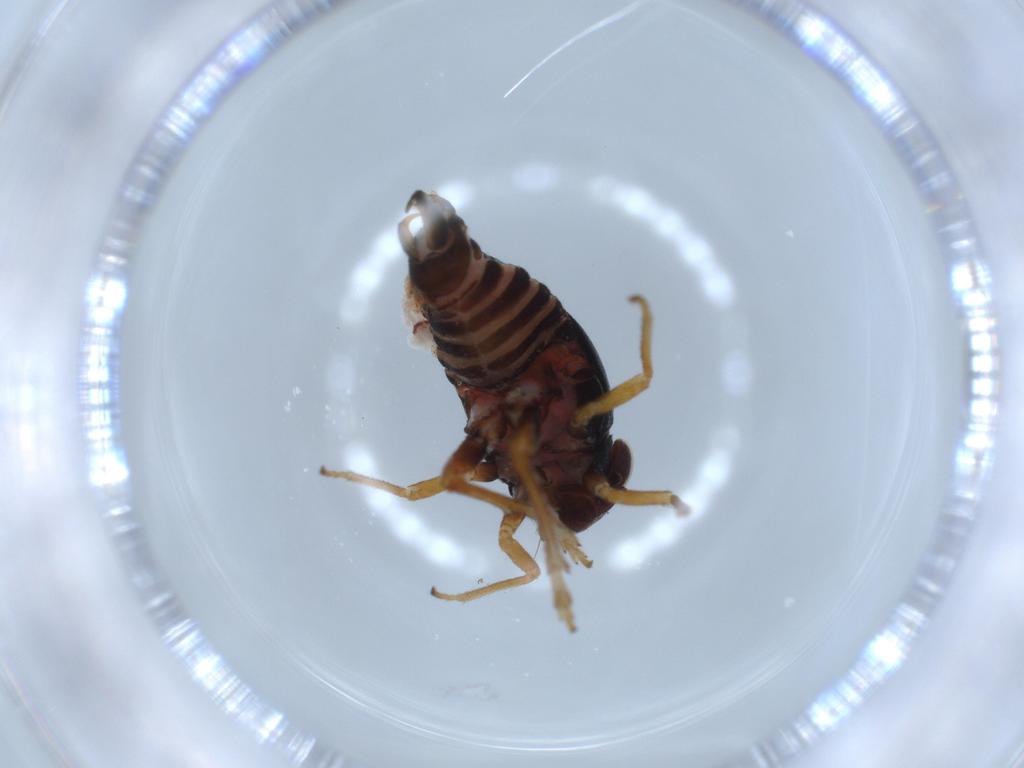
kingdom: Animalia
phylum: Arthropoda
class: Insecta
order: Hemiptera
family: Caliscelidae
